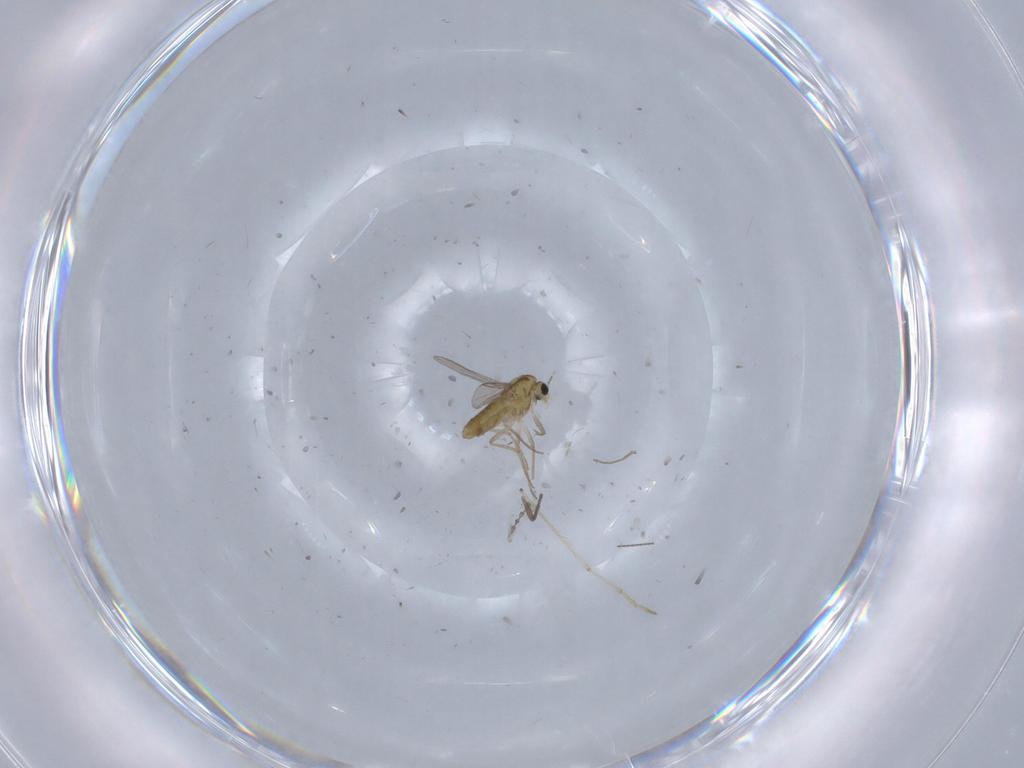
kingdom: Animalia
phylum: Arthropoda
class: Insecta
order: Diptera
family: Chironomidae
